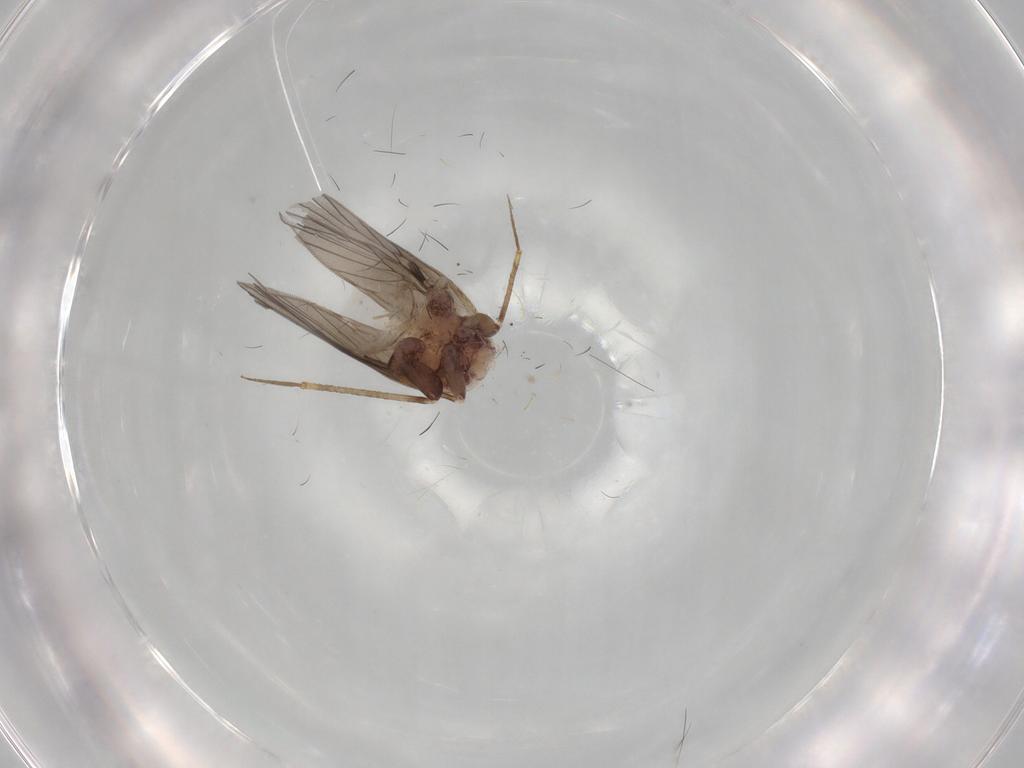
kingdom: Animalia
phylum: Arthropoda
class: Insecta
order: Psocodea
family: Lepidopsocidae
